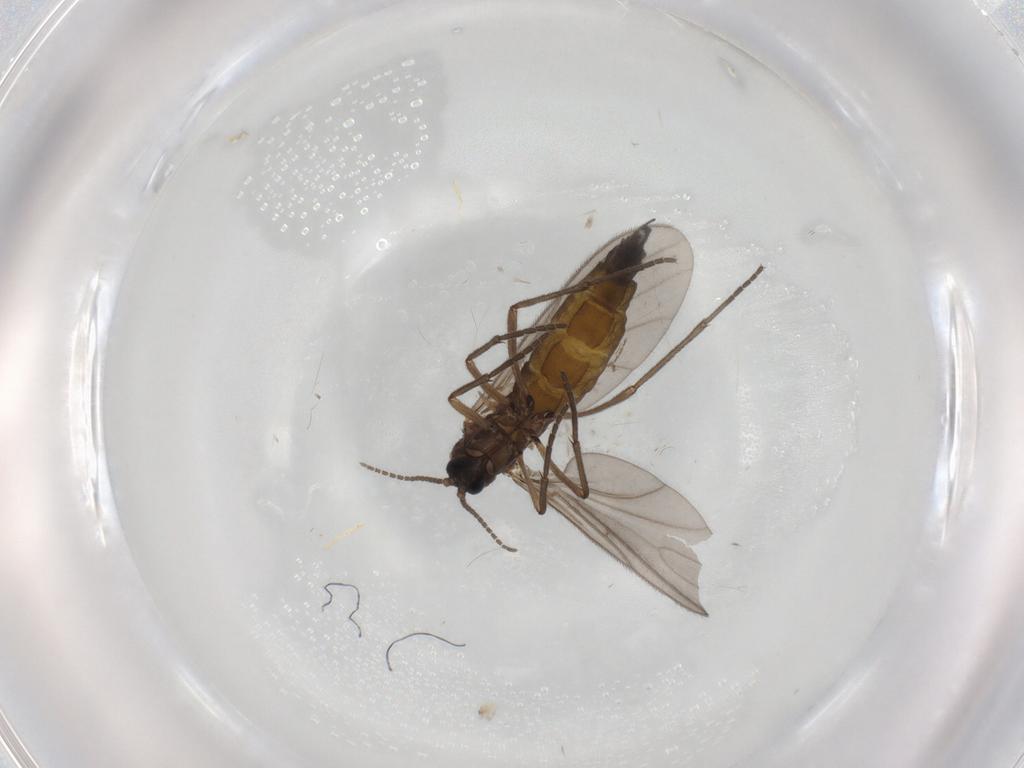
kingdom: Animalia
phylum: Arthropoda
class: Insecta
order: Diptera
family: Sciaridae
